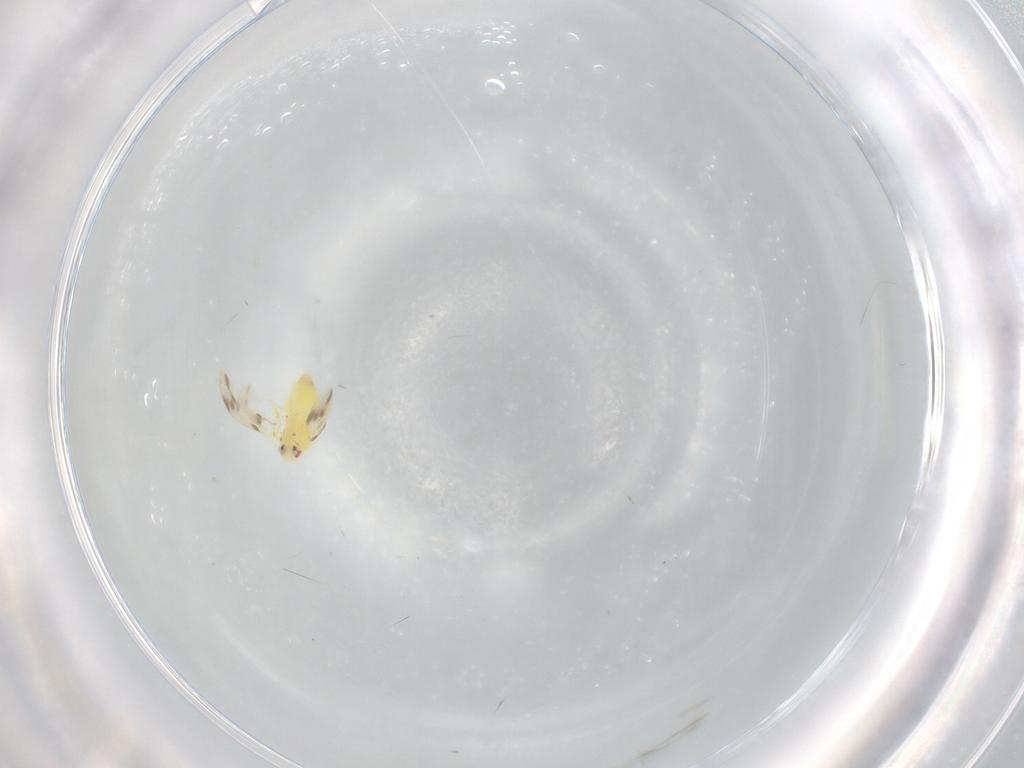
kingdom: Animalia
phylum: Arthropoda
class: Insecta
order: Hemiptera
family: Aleyrodidae
